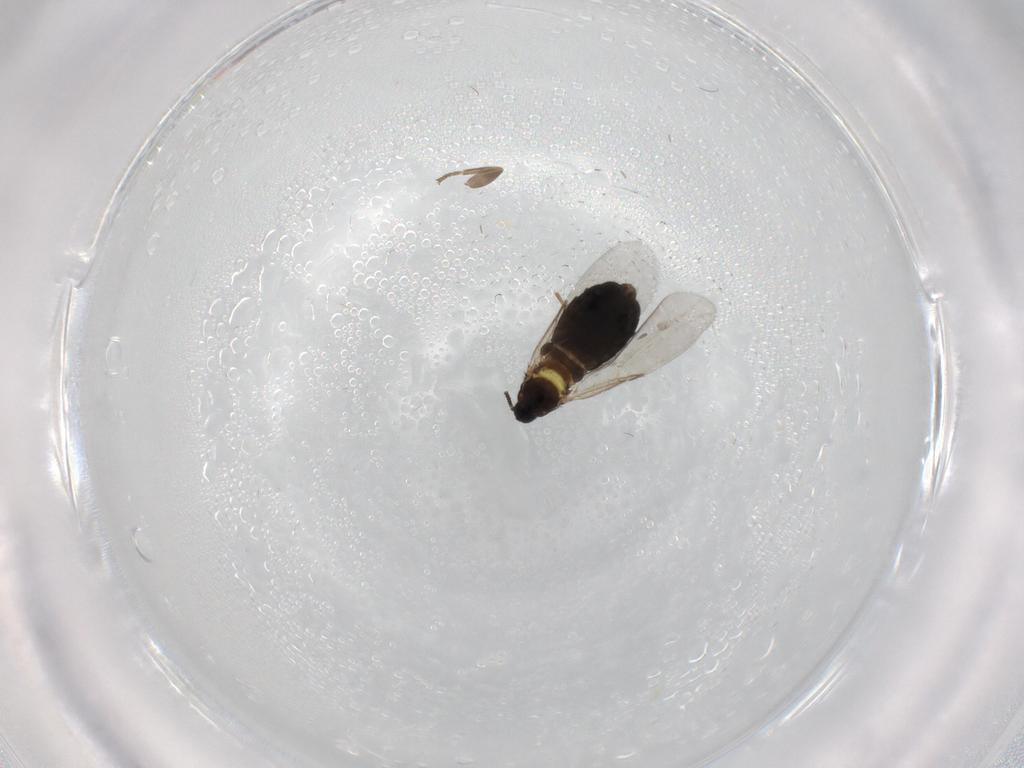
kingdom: Animalia
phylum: Arthropoda
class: Insecta
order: Diptera
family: Scatopsidae
